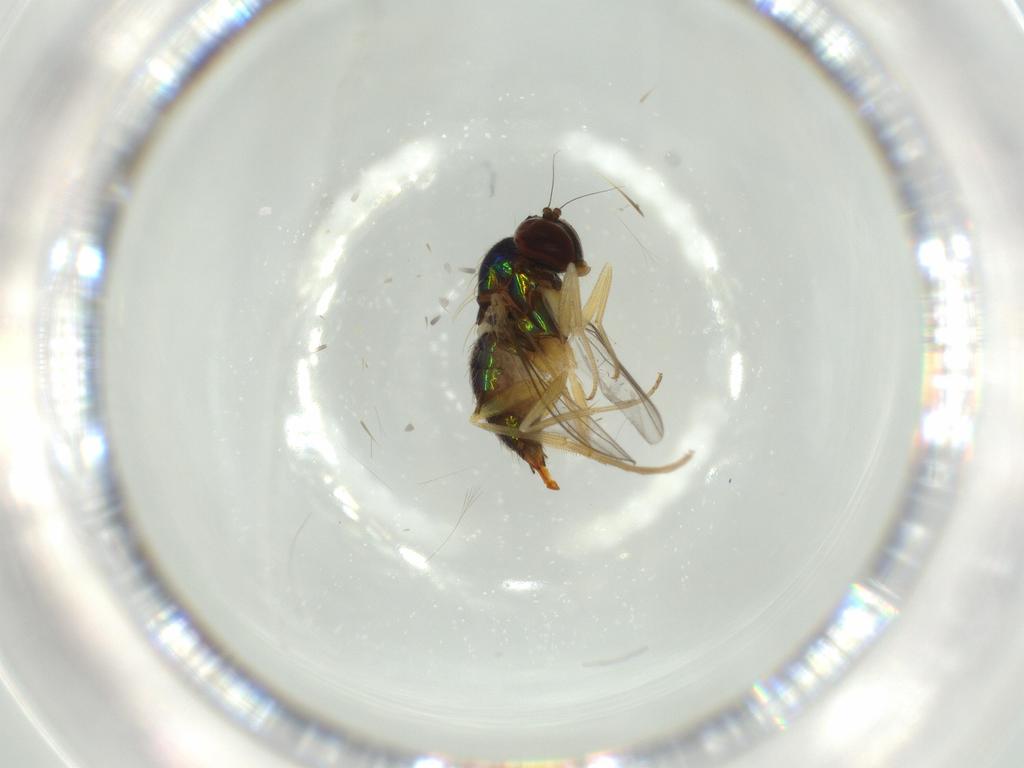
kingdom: Animalia
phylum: Arthropoda
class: Insecta
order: Diptera
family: Dolichopodidae
